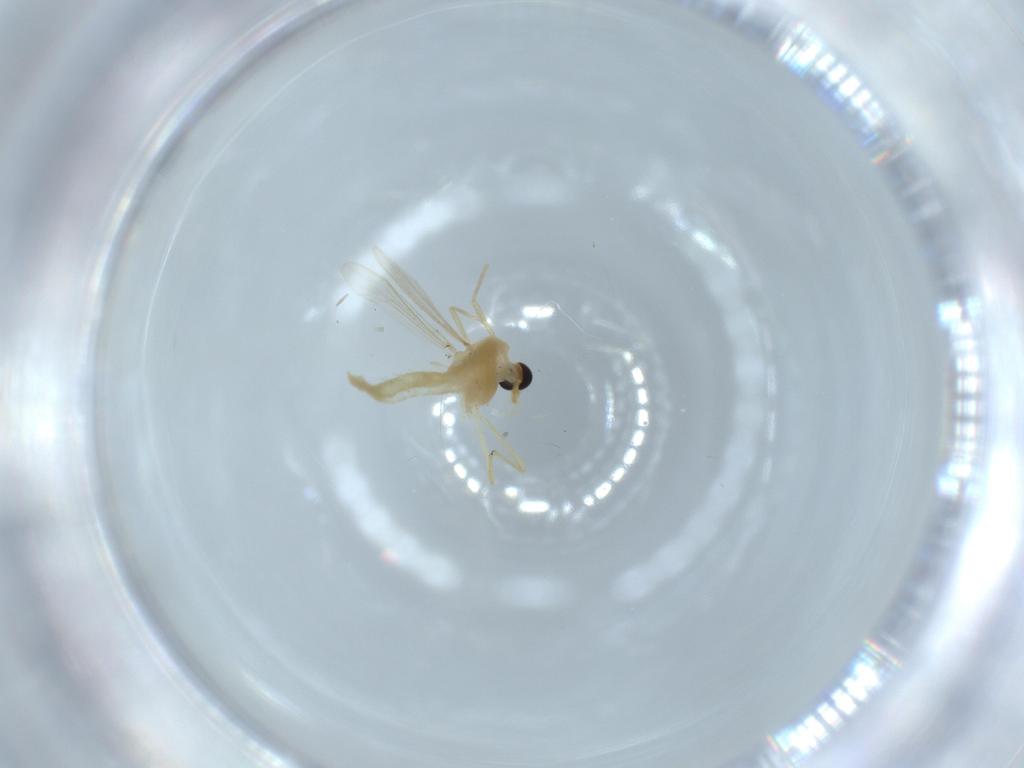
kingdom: Animalia
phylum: Arthropoda
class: Insecta
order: Diptera
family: Chironomidae
